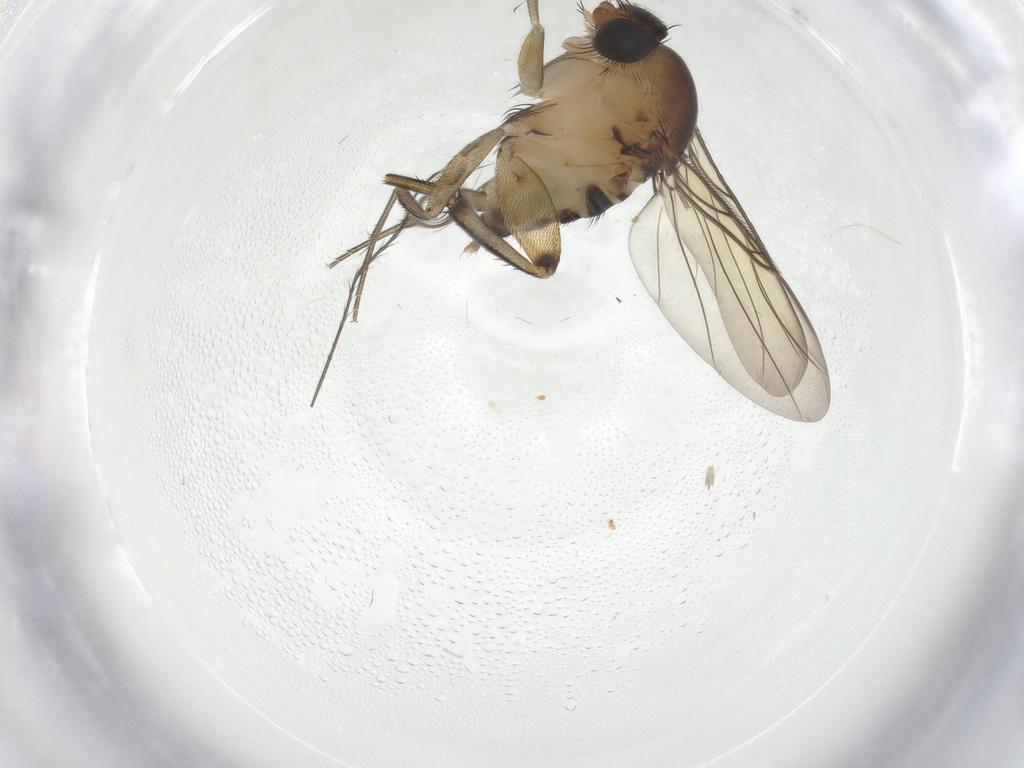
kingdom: Animalia
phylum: Arthropoda
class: Insecta
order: Diptera
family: Phoridae
